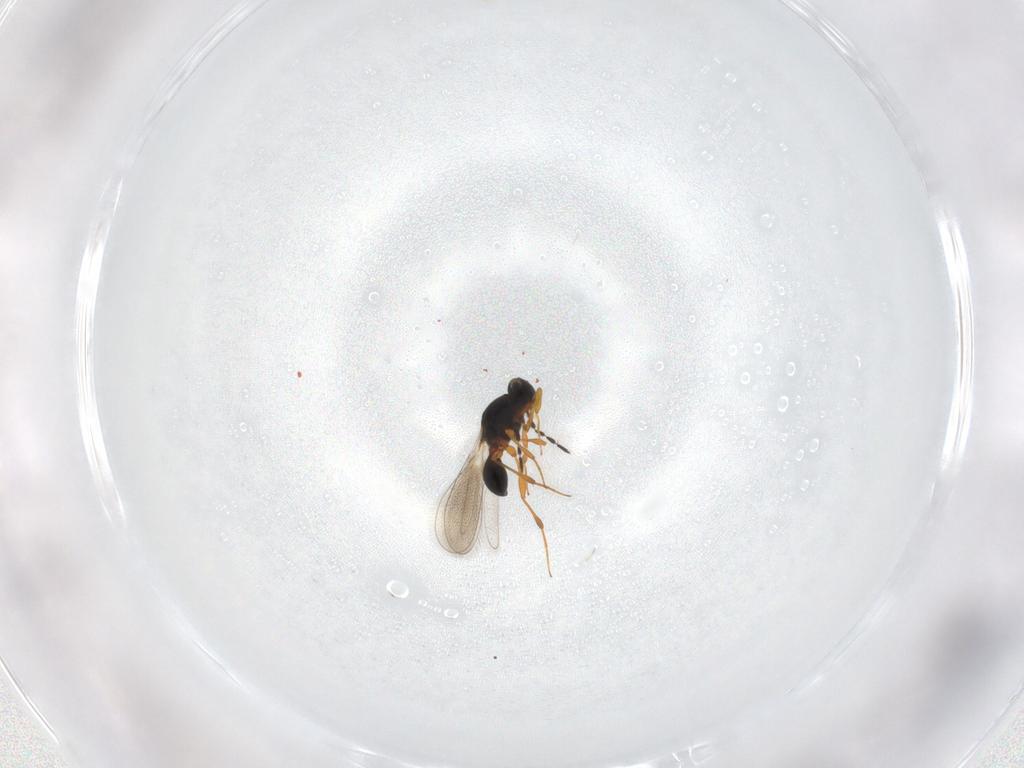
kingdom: Animalia
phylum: Arthropoda
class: Insecta
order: Hymenoptera
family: Platygastridae
